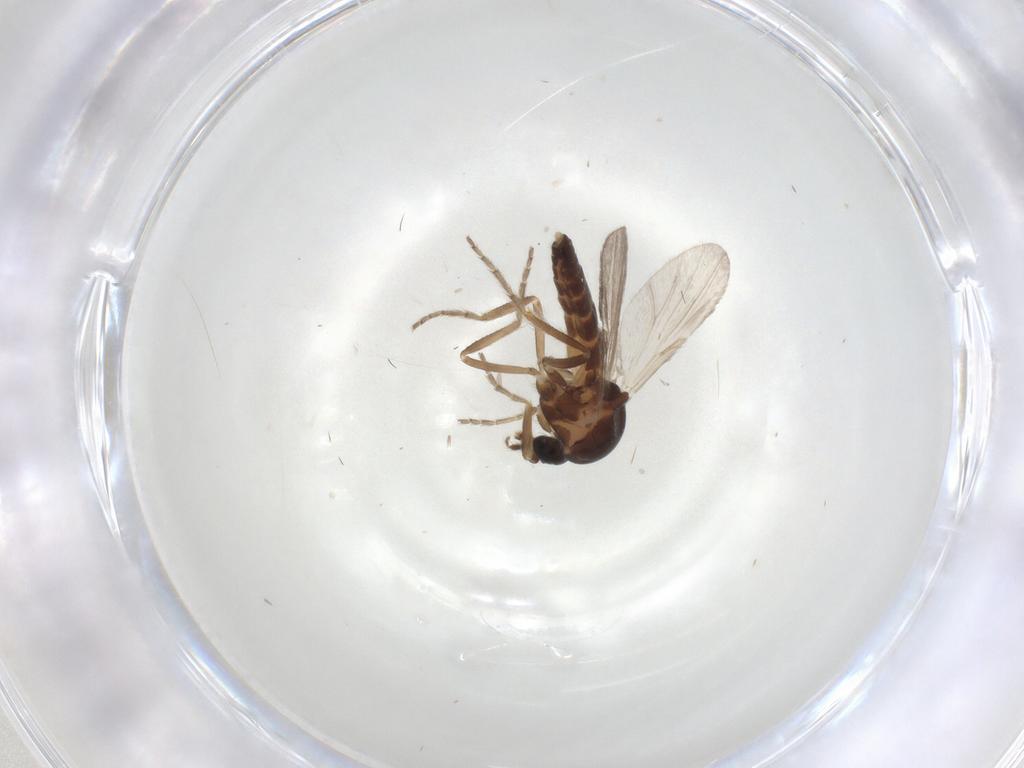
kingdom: Animalia
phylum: Arthropoda
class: Insecta
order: Diptera
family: Ceratopogonidae
